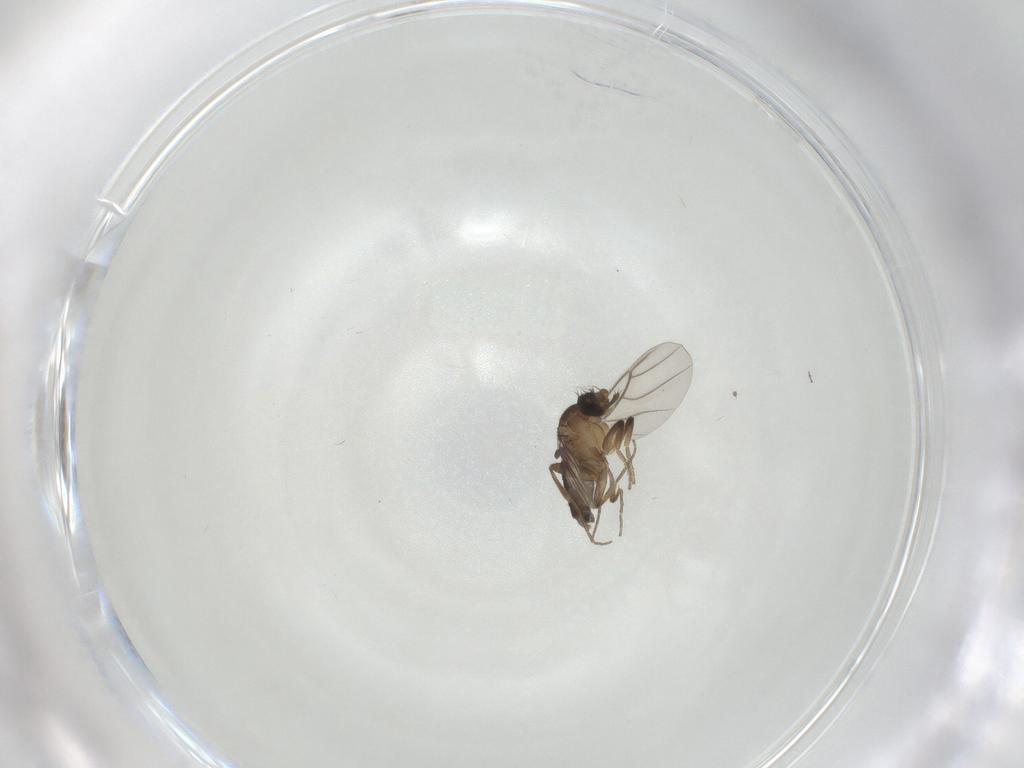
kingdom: Animalia
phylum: Arthropoda
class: Insecta
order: Diptera
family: Phoridae
